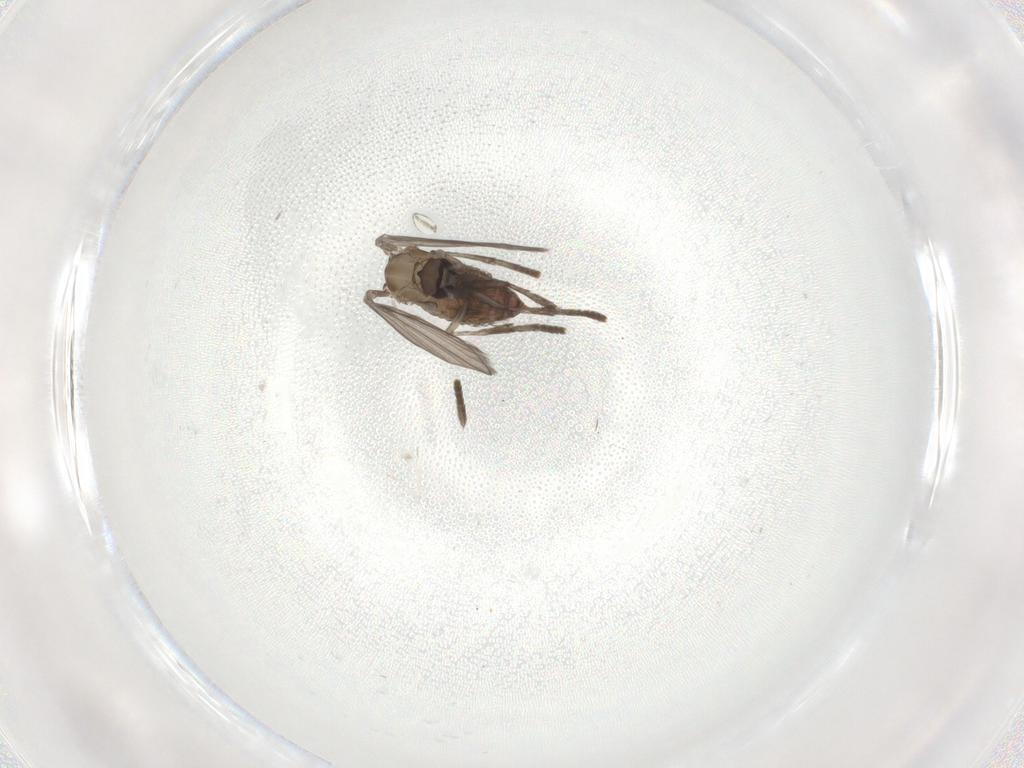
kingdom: Animalia
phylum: Arthropoda
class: Insecta
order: Diptera
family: Psychodidae
